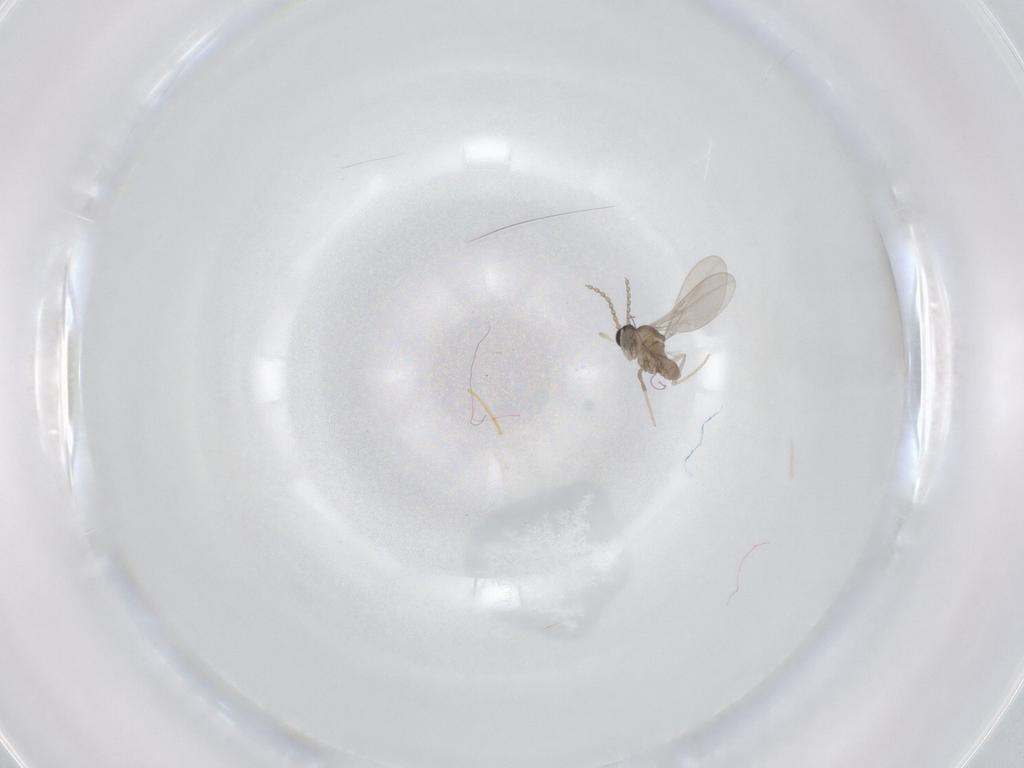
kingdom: Animalia
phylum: Arthropoda
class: Insecta
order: Diptera
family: Cecidomyiidae
